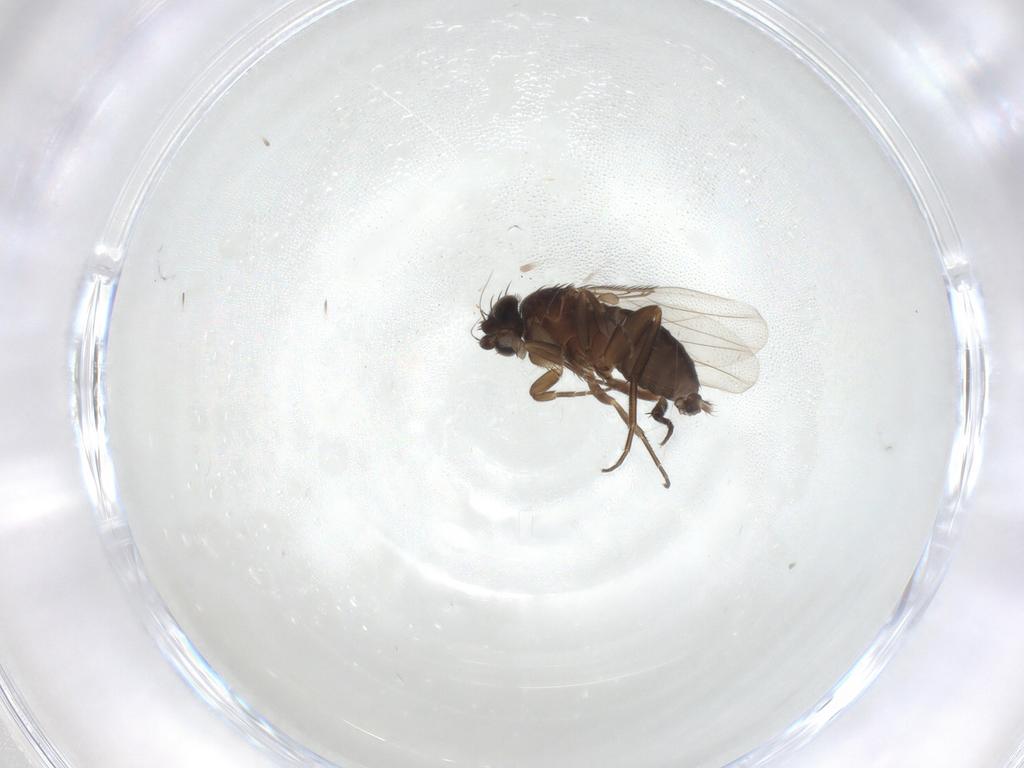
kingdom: Animalia
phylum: Arthropoda
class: Insecta
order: Diptera
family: Phoridae
